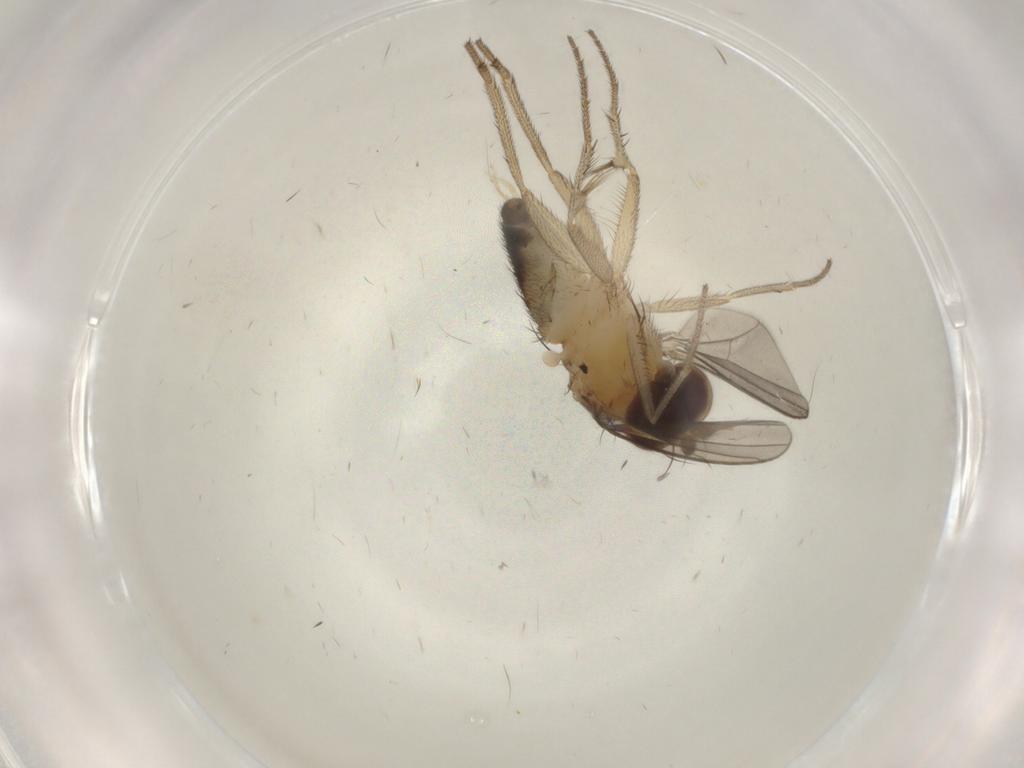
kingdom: Animalia
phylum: Arthropoda
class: Insecta
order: Diptera
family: Dolichopodidae
